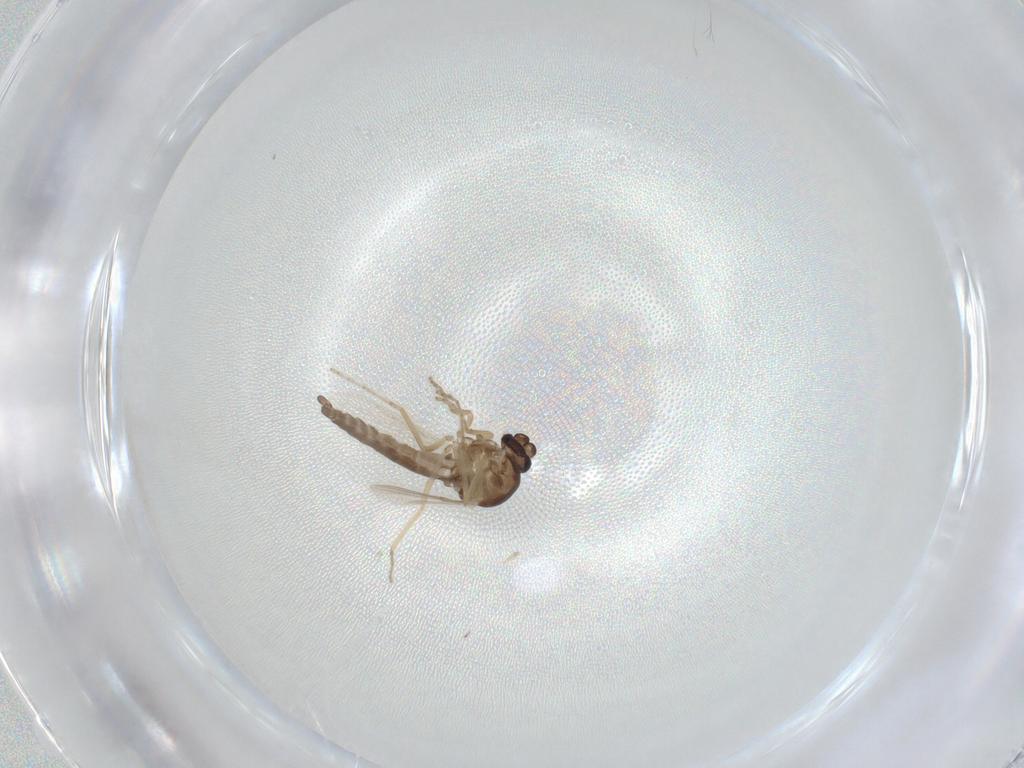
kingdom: Animalia
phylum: Arthropoda
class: Insecta
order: Diptera
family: Ceratopogonidae
